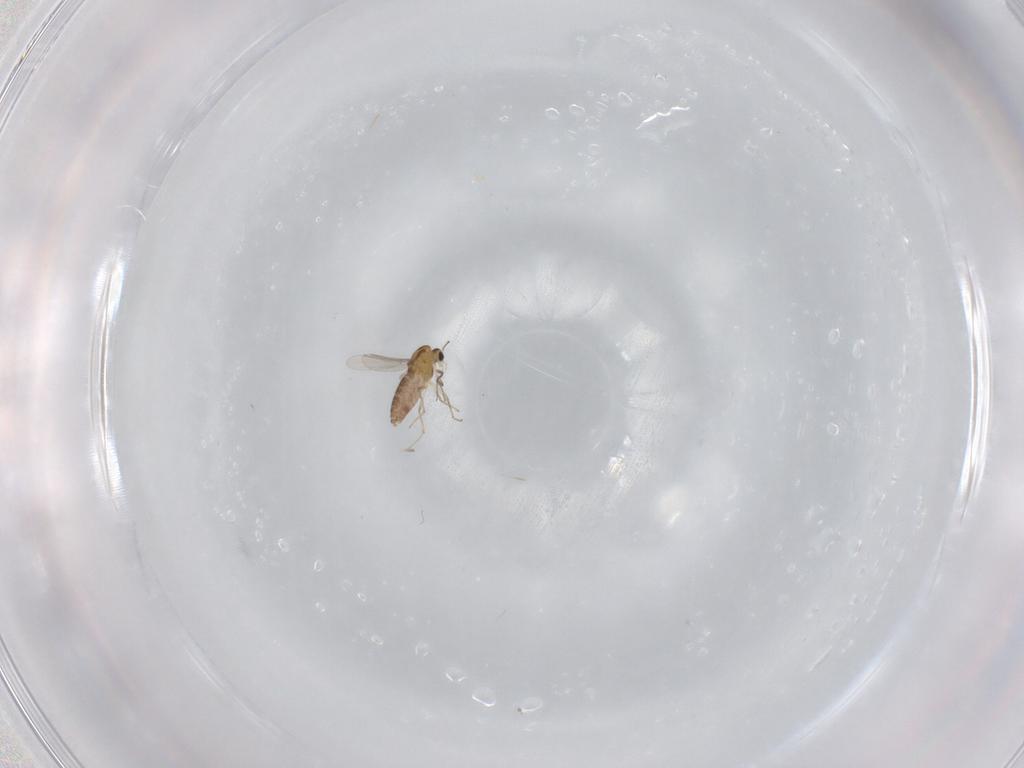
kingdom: Animalia
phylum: Arthropoda
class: Insecta
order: Diptera
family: Chironomidae
